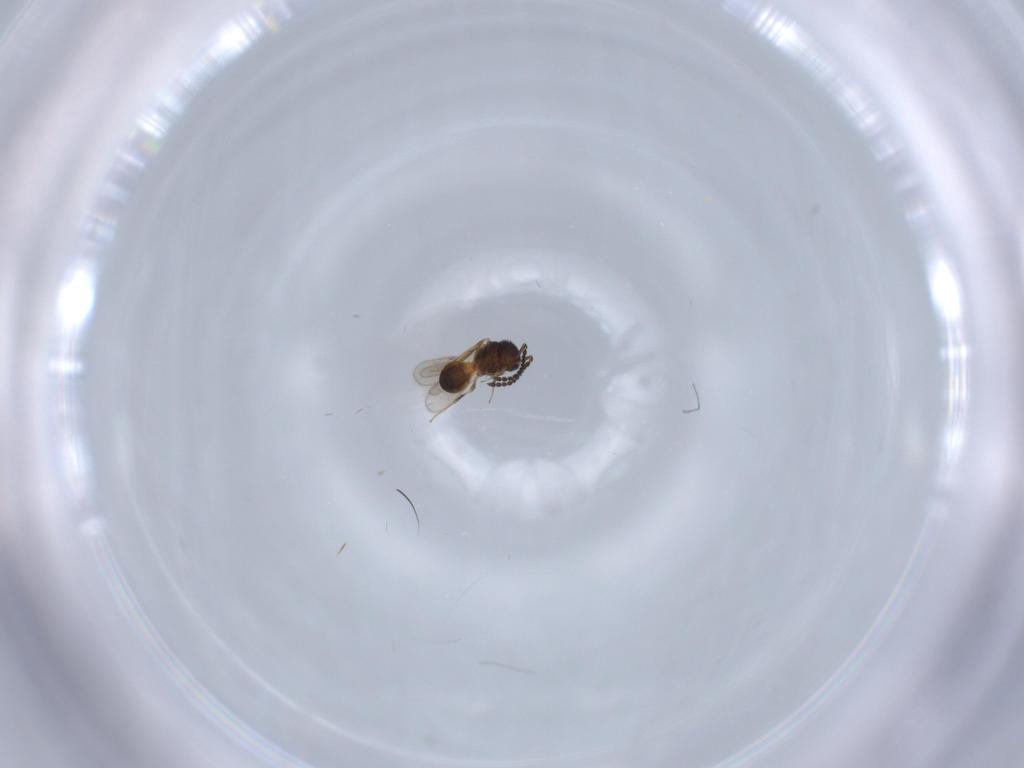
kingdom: Animalia
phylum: Arthropoda
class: Insecta
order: Hymenoptera
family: Scelionidae
